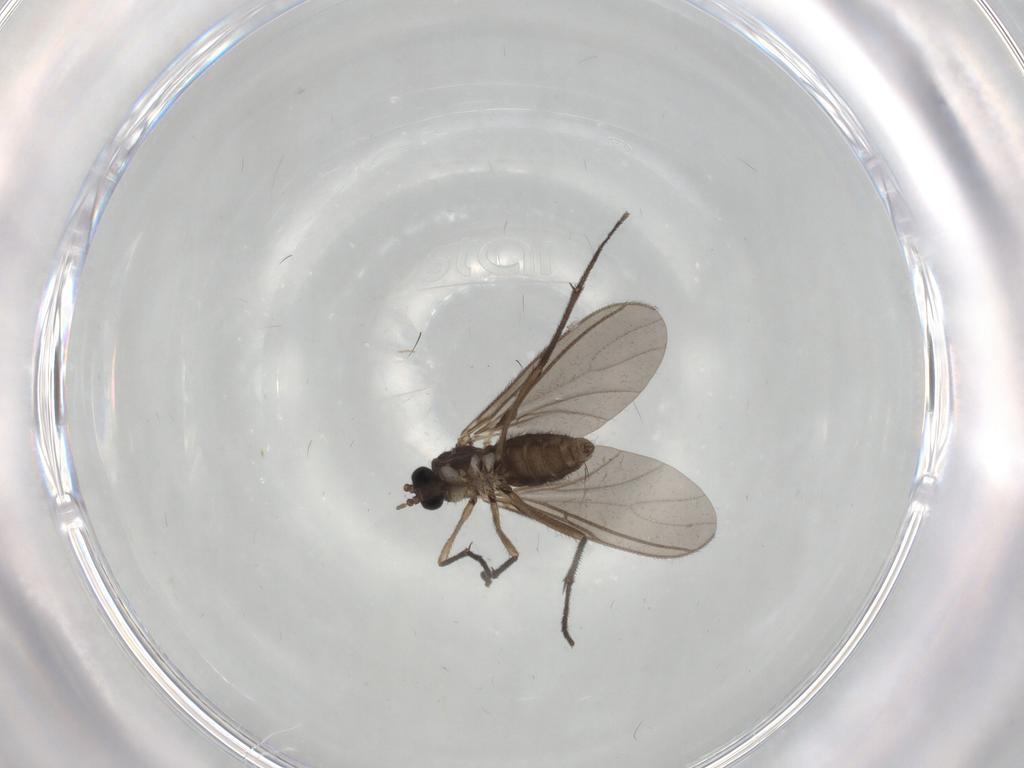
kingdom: Animalia
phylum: Arthropoda
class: Insecta
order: Diptera
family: Sciaridae
